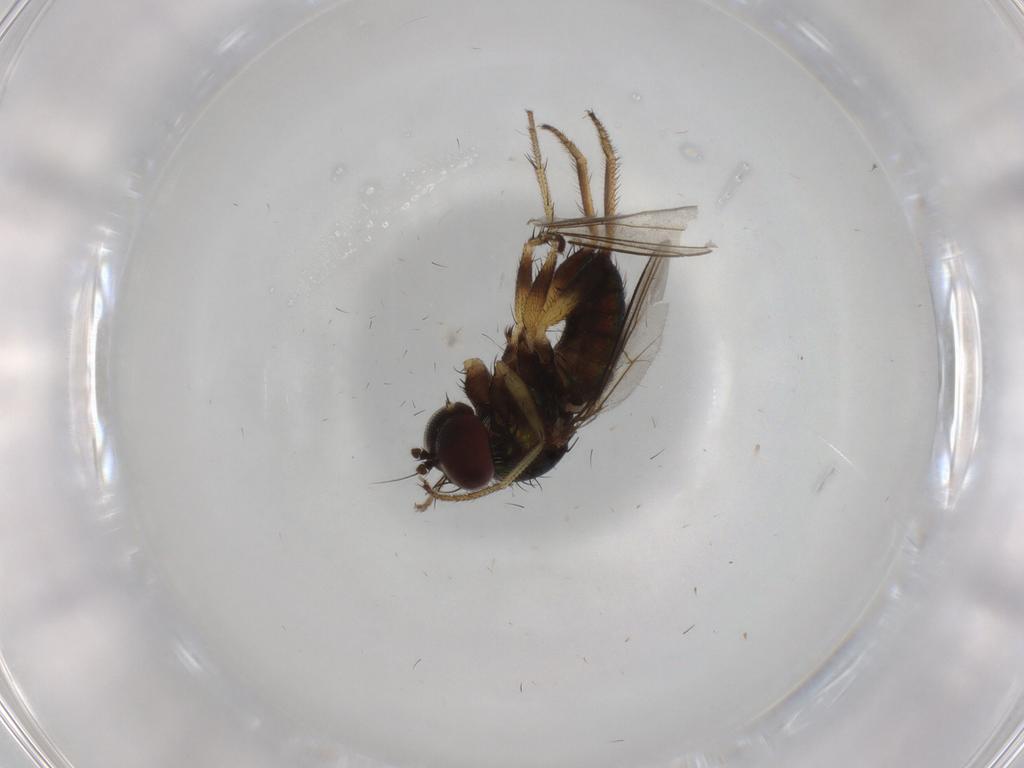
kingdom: Animalia
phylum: Arthropoda
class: Insecta
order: Diptera
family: Dolichopodidae
